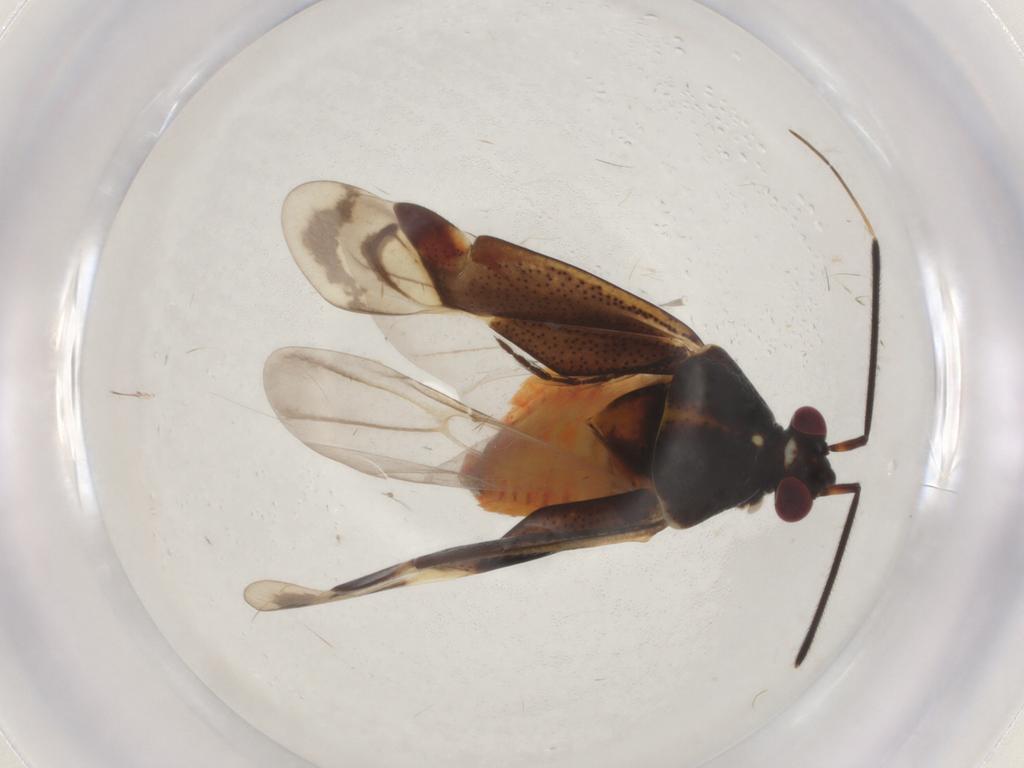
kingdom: Animalia
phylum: Arthropoda
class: Insecta
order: Hemiptera
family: Miridae
